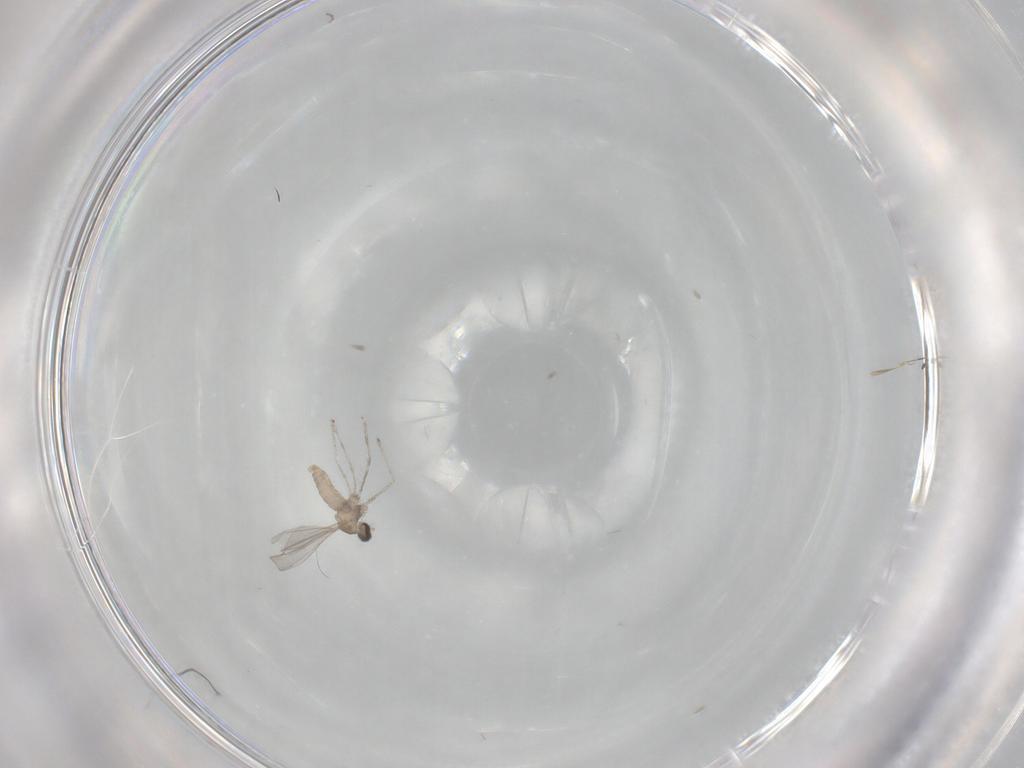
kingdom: Animalia
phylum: Arthropoda
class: Insecta
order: Diptera
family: Cecidomyiidae
